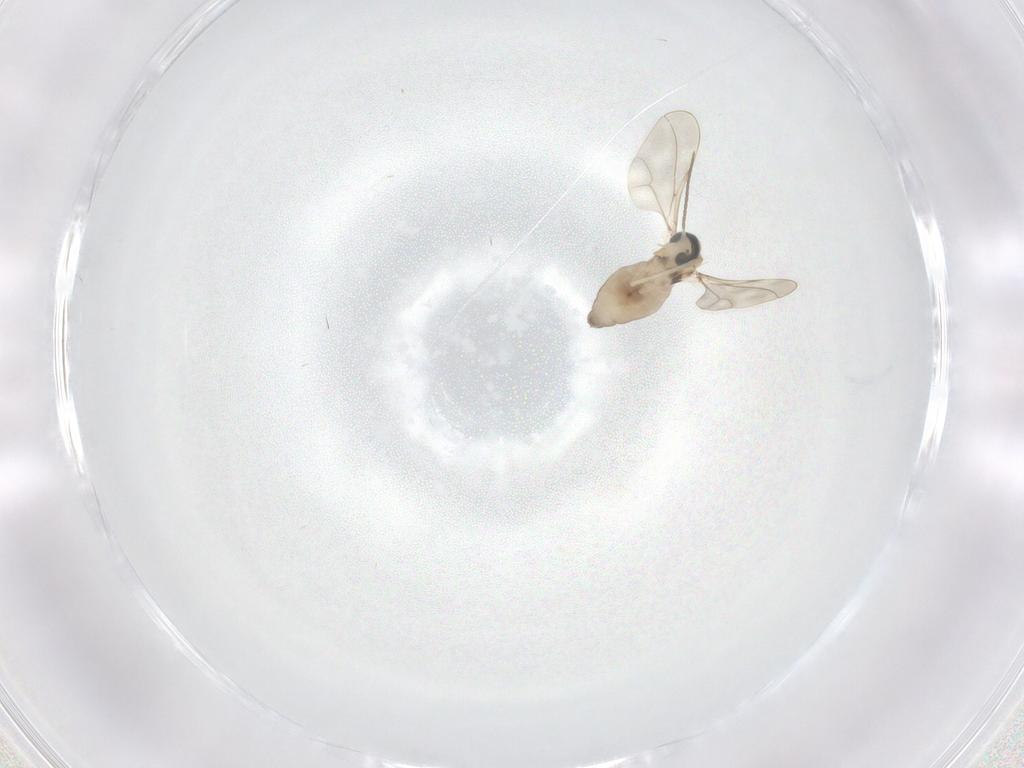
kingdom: Animalia
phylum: Arthropoda
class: Insecta
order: Diptera
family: Cecidomyiidae
